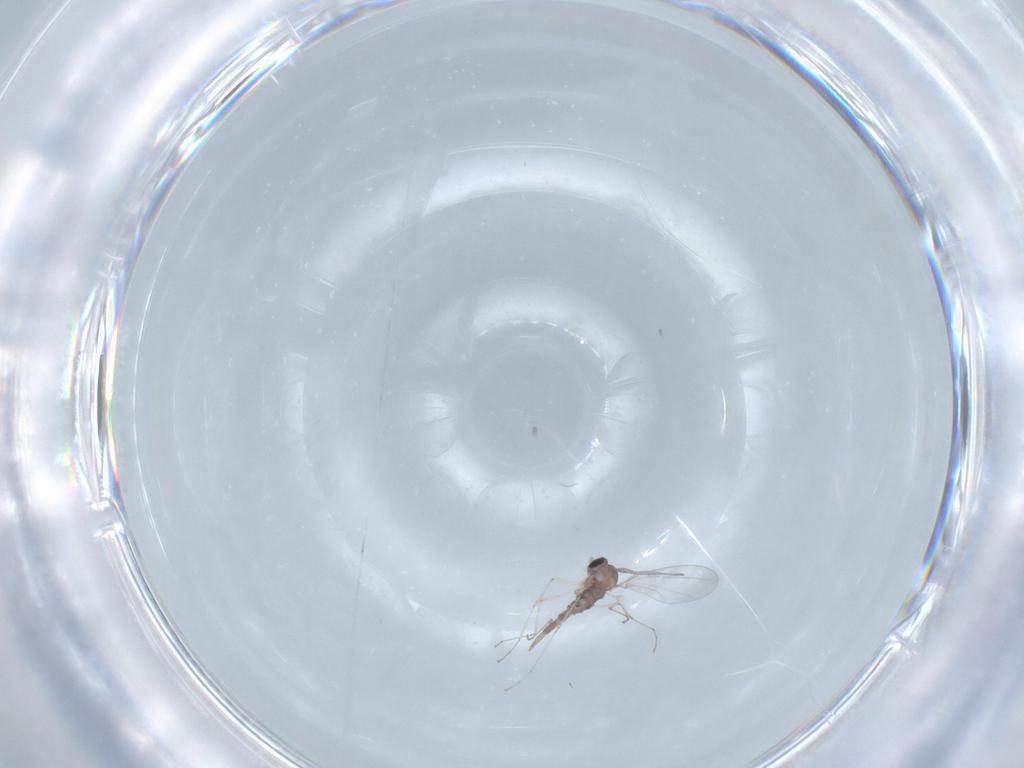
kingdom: Animalia
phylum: Arthropoda
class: Insecta
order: Diptera
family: Cecidomyiidae
